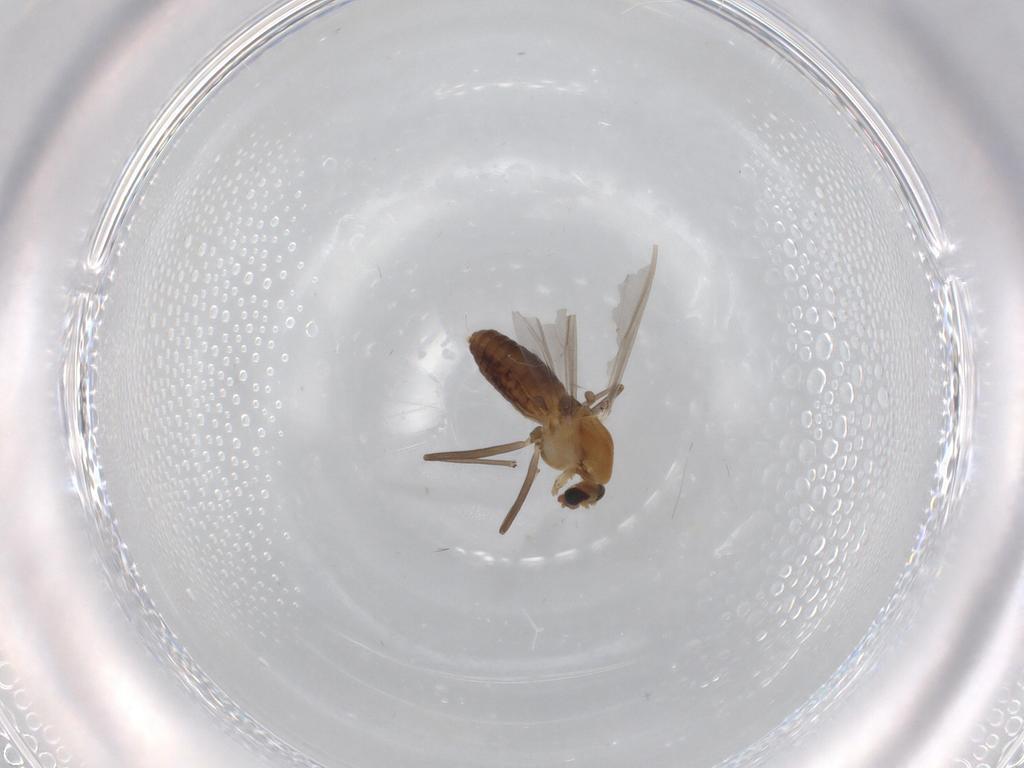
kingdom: Animalia
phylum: Arthropoda
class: Insecta
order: Diptera
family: Chironomidae
